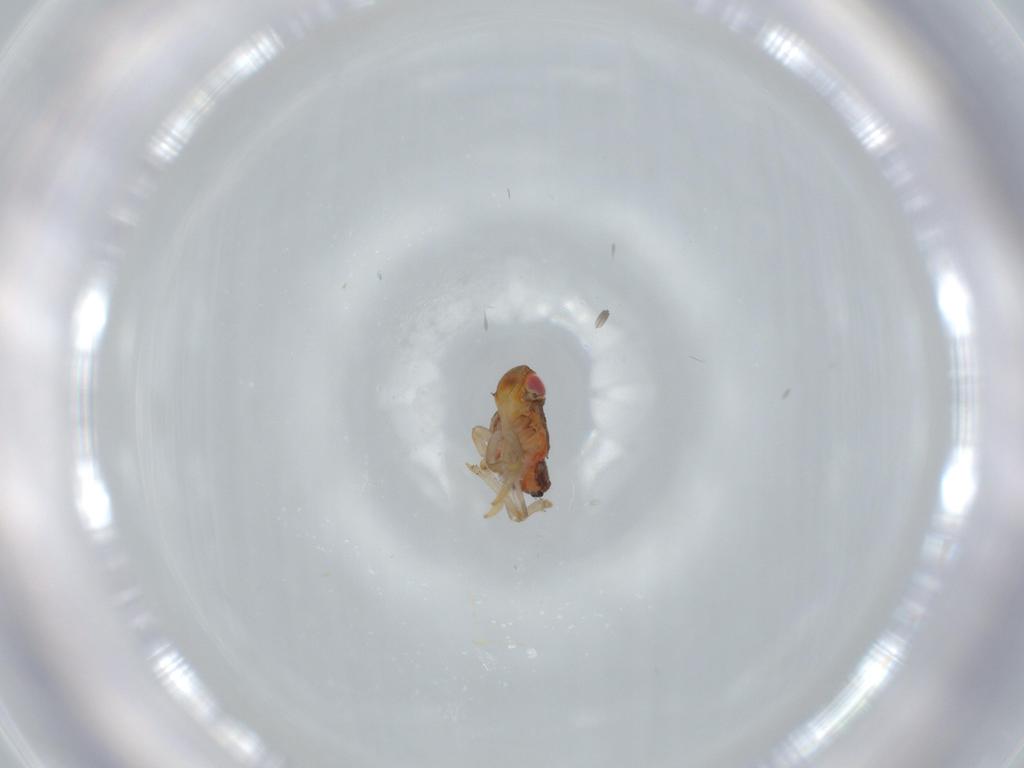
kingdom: Animalia
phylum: Arthropoda
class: Insecta
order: Hemiptera
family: Issidae
